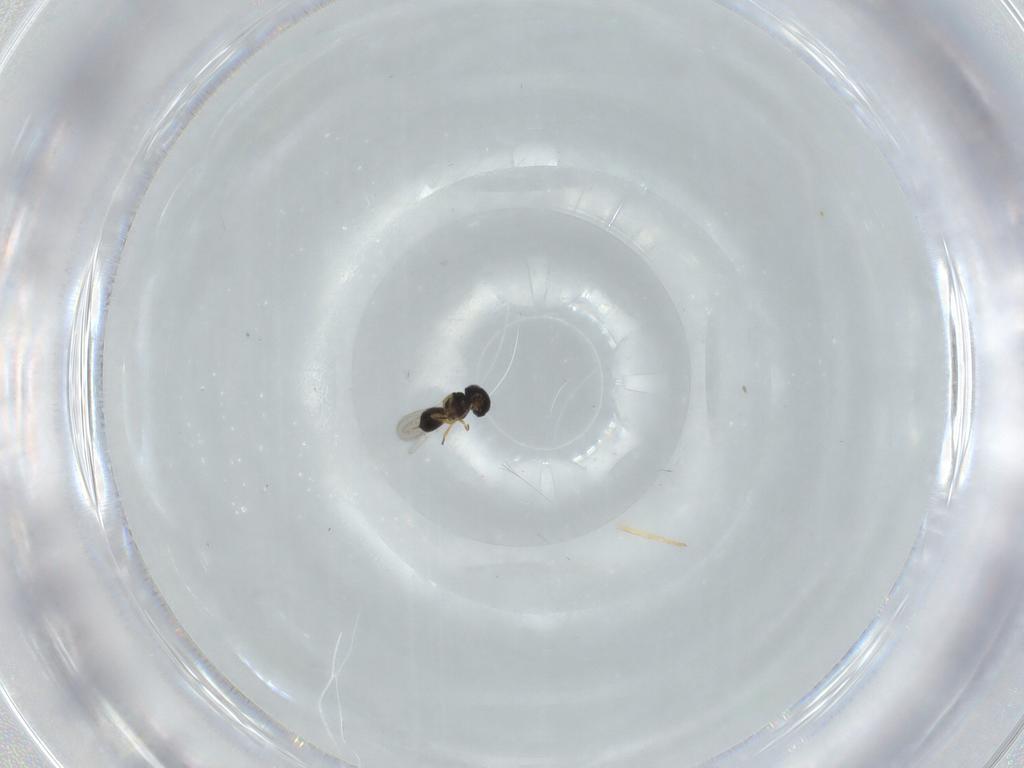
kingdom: Animalia
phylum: Arthropoda
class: Insecta
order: Hymenoptera
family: Scelionidae
